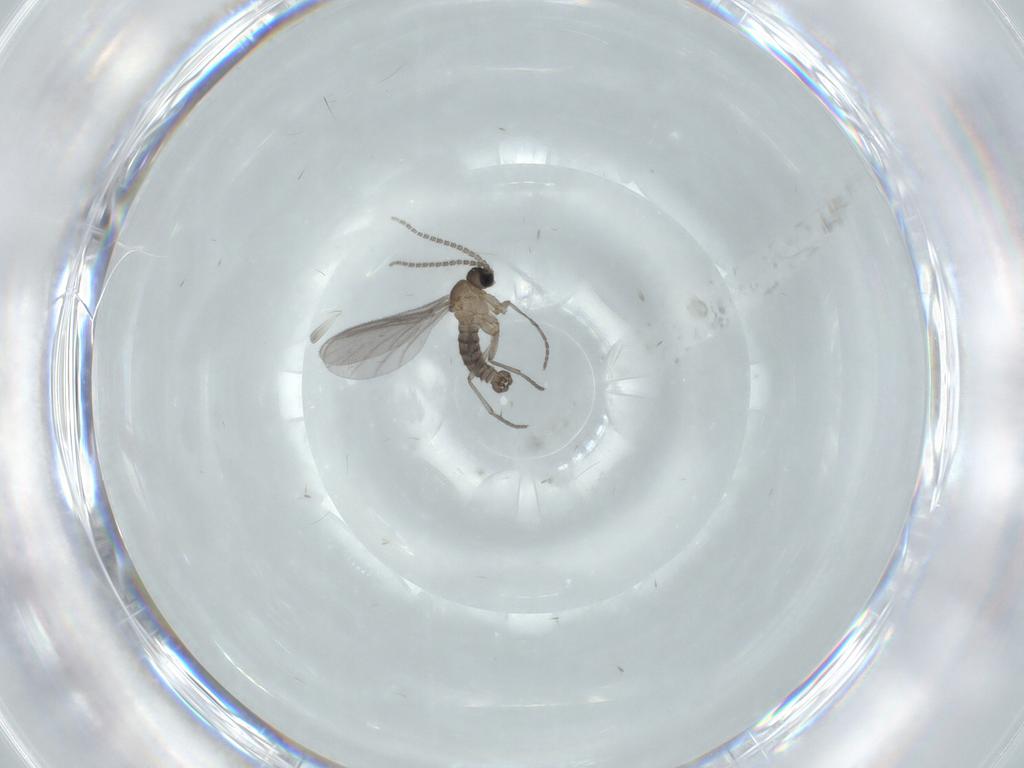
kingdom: Animalia
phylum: Arthropoda
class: Insecta
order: Diptera
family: Sciaridae
